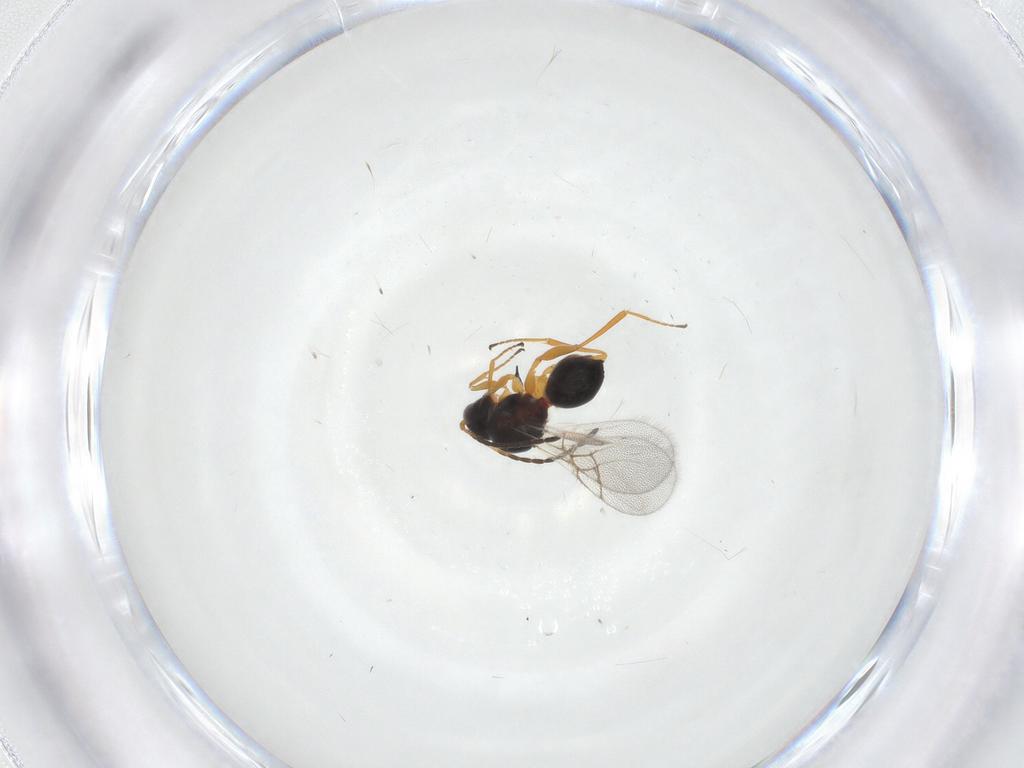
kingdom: Animalia
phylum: Arthropoda
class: Insecta
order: Hymenoptera
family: Figitidae
